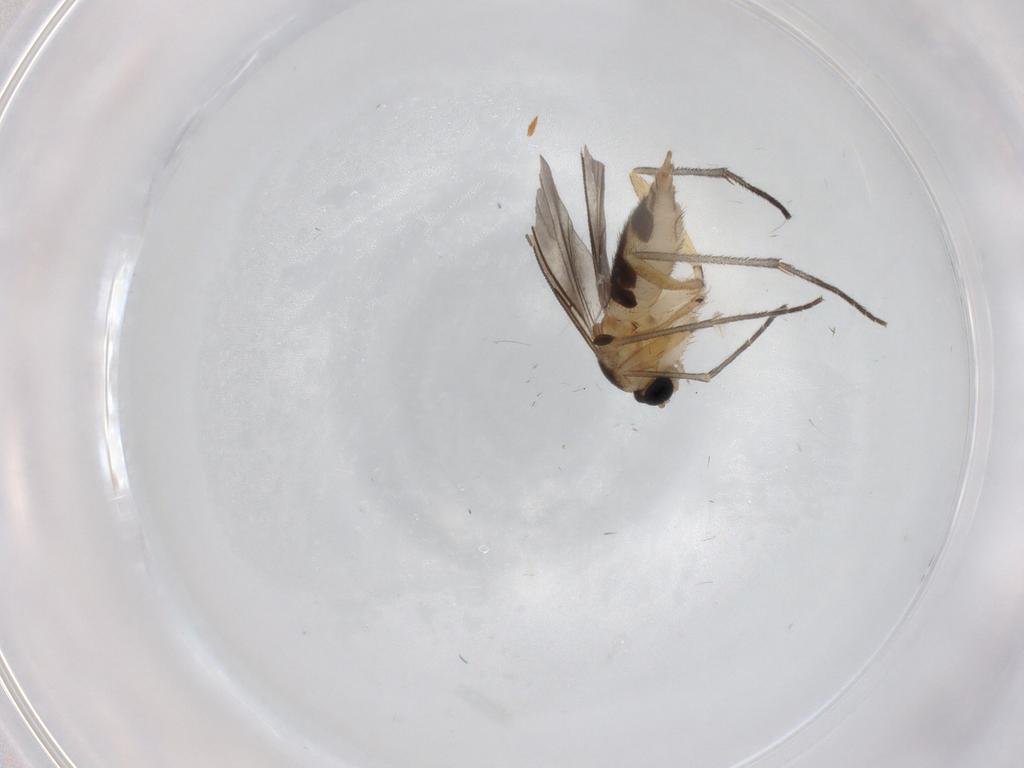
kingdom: Animalia
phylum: Arthropoda
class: Insecta
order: Diptera
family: Sciaridae
